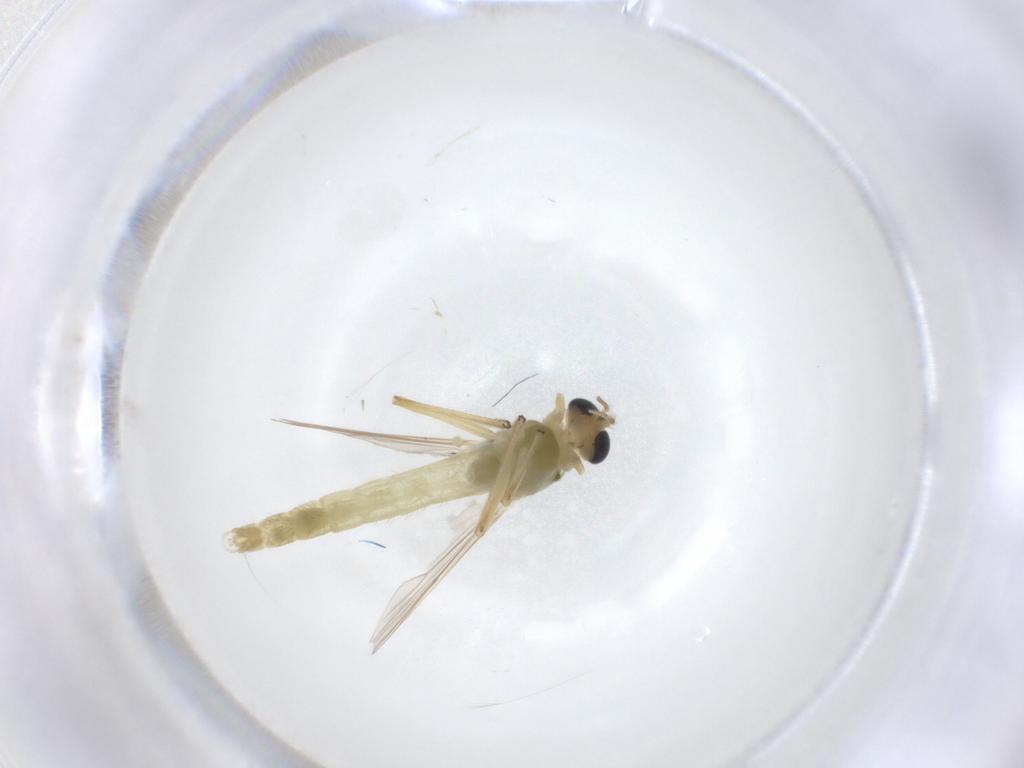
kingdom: Animalia
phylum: Arthropoda
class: Insecta
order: Diptera
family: Chironomidae
